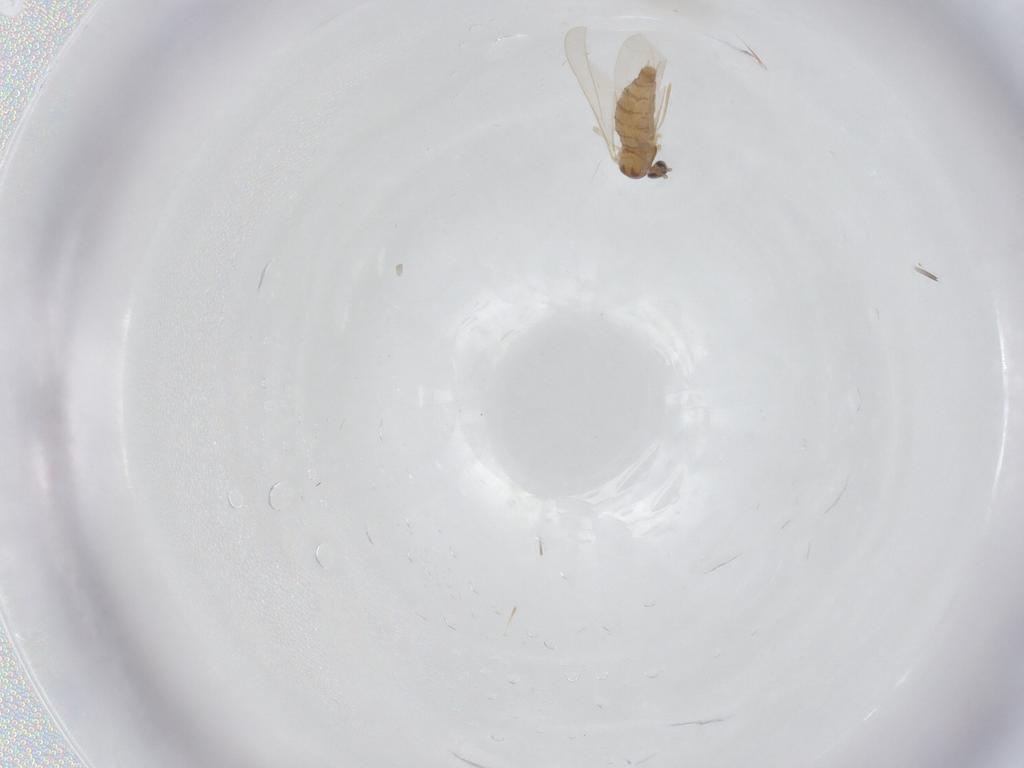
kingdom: Animalia
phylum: Arthropoda
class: Insecta
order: Diptera
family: Cecidomyiidae
